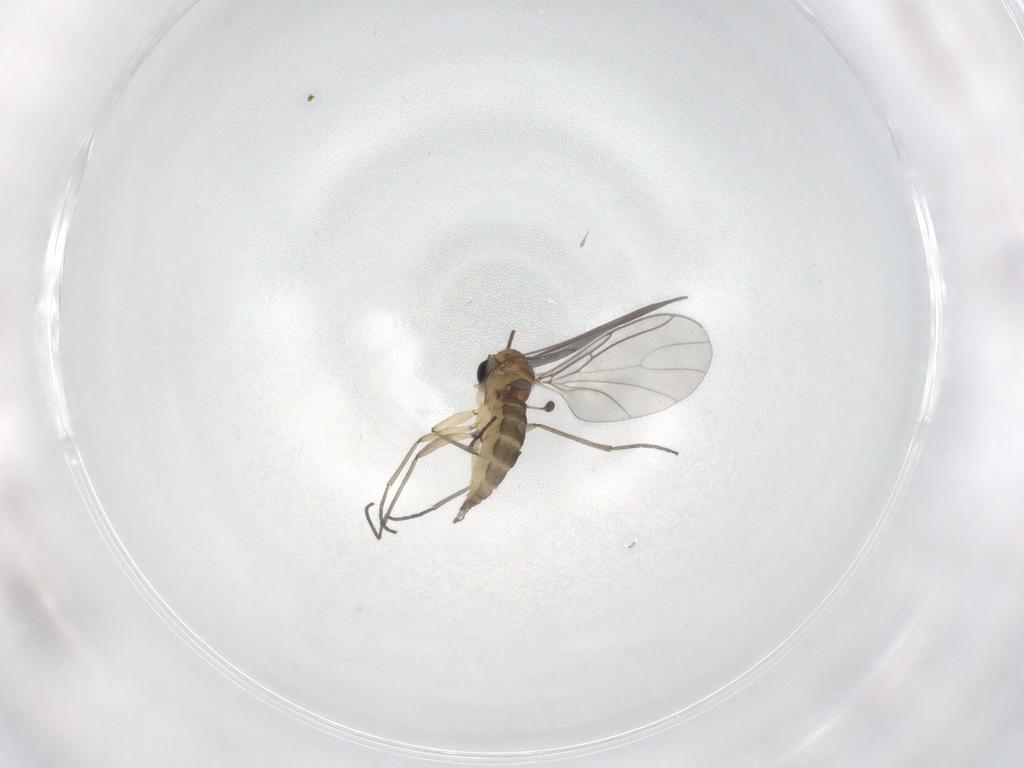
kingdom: Animalia
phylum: Arthropoda
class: Insecta
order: Diptera
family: Sciaridae
